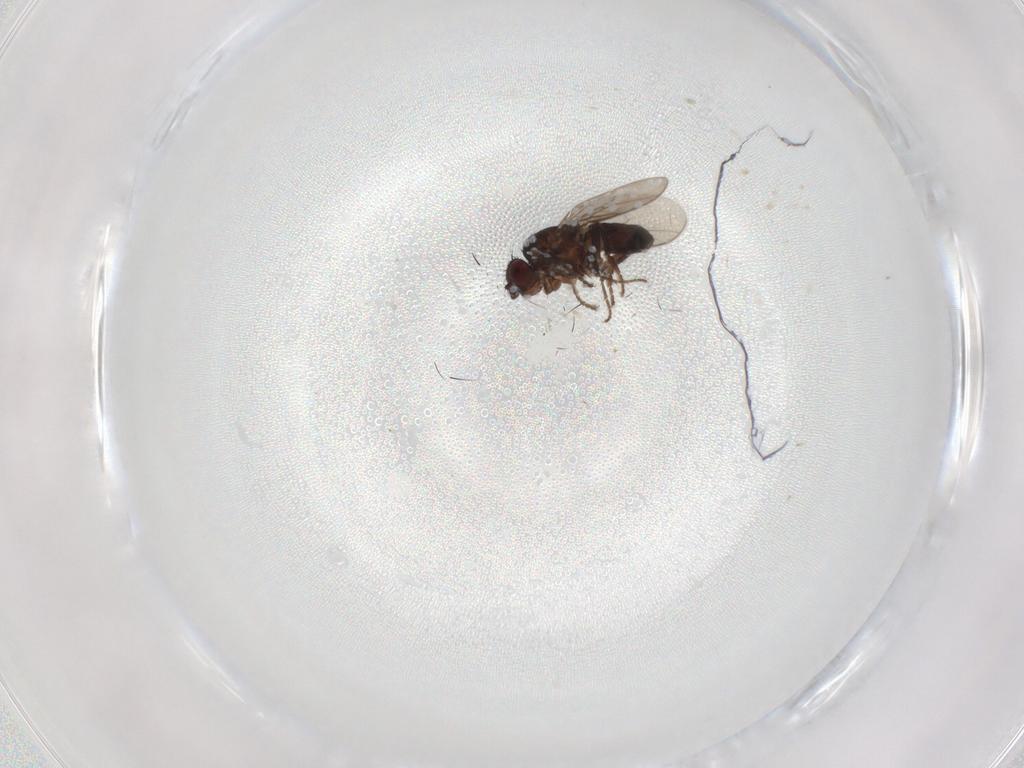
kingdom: Animalia
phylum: Arthropoda
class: Insecta
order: Diptera
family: Sphaeroceridae
